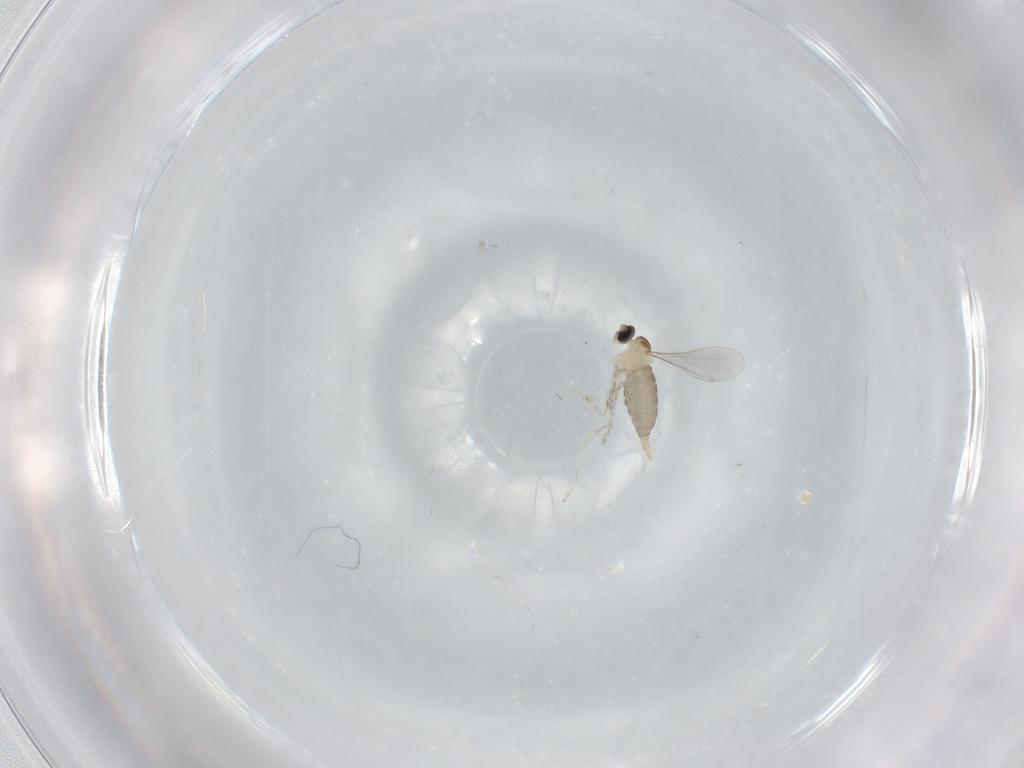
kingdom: Animalia
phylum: Arthropoda
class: Insecta
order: Diptera
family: Cecidomyiidae
